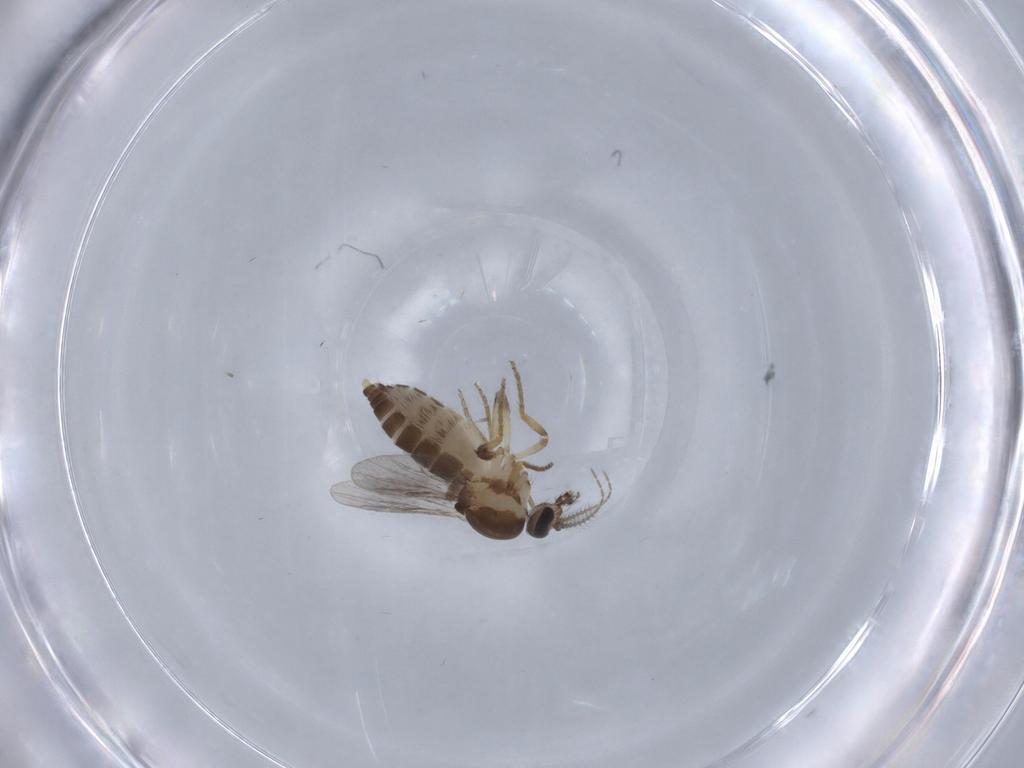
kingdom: Animalia
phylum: Arthropoda
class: Insecta
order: Diptera
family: Ceratopogonidae
